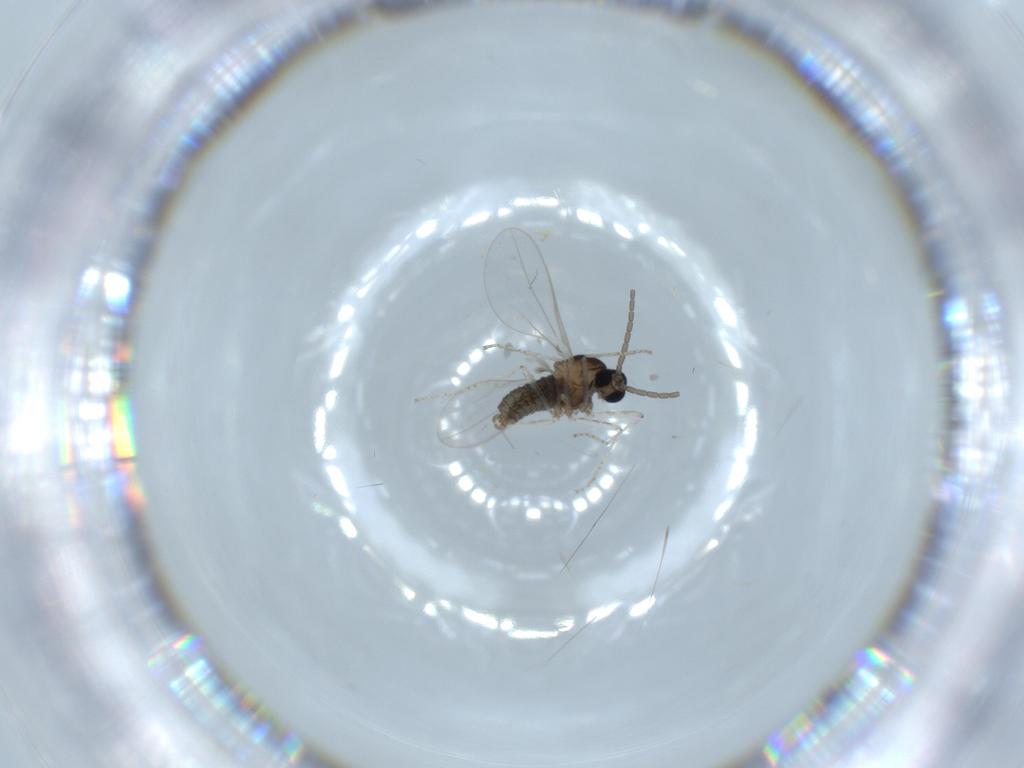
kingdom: Animalia
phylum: Arthropoda
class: Insecta
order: Diptera
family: Cecidomyiidae
